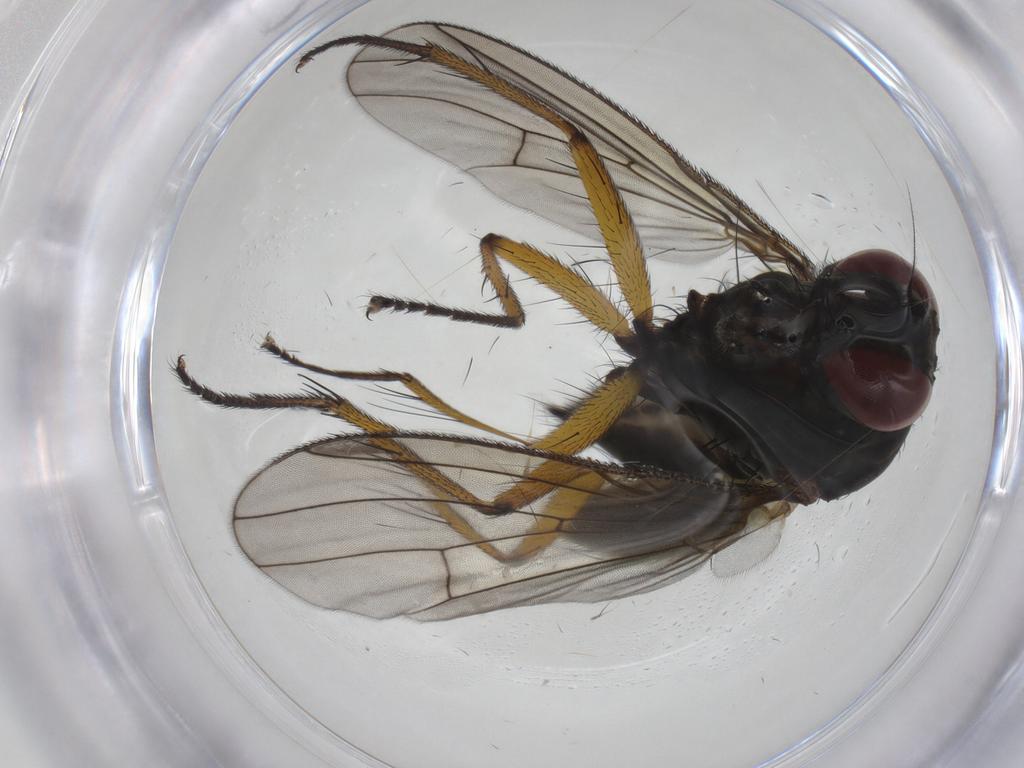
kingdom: Animalia
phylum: Arthropoda
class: Insecta
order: Diptera
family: Muscidae
